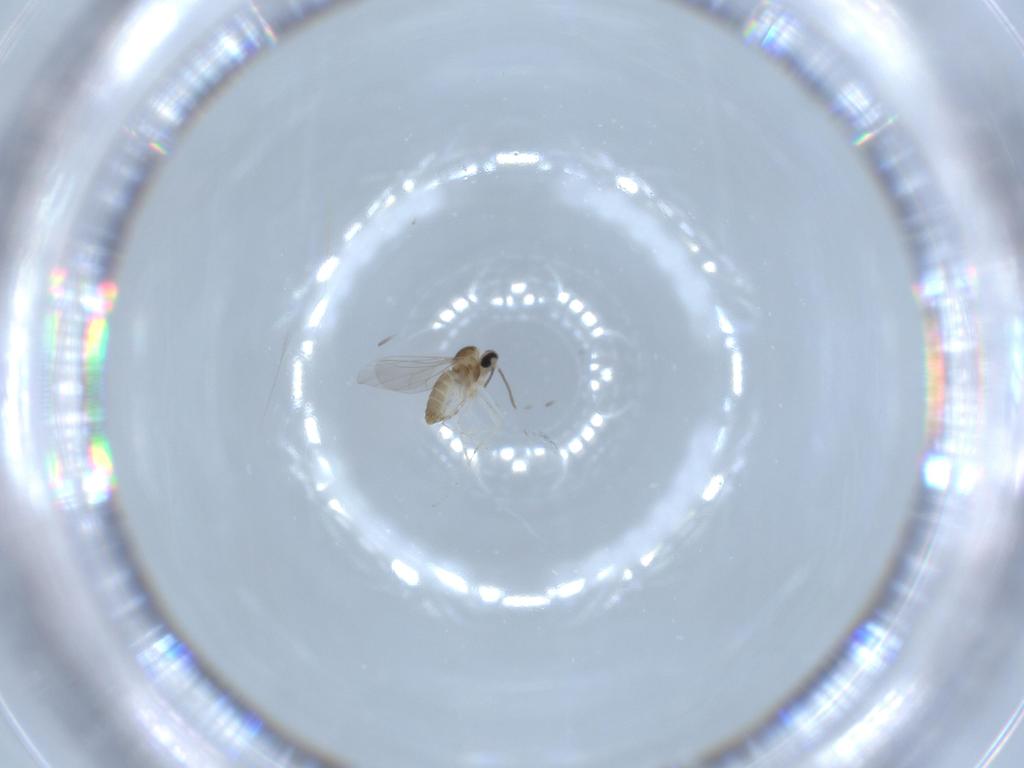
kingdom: Animalia
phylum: Arthropoda
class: Insecta
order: Diptera
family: Cecidomyiidae
